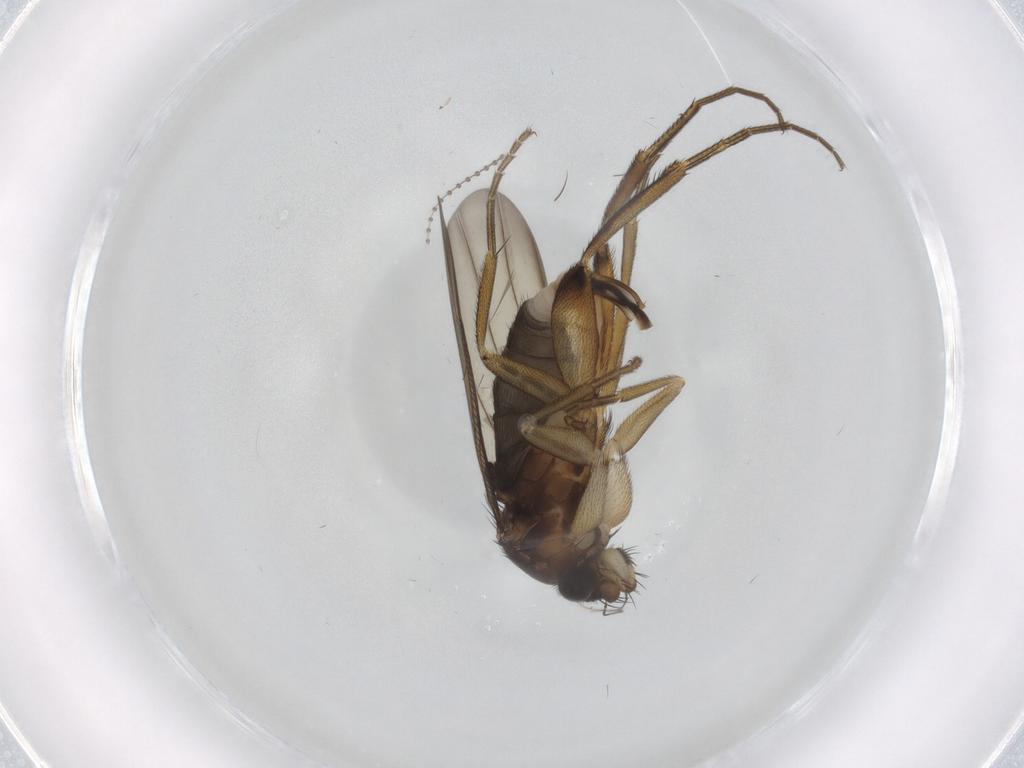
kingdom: Animalia
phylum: Arthropoda
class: Insecta
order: Diptera
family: Phoridae
